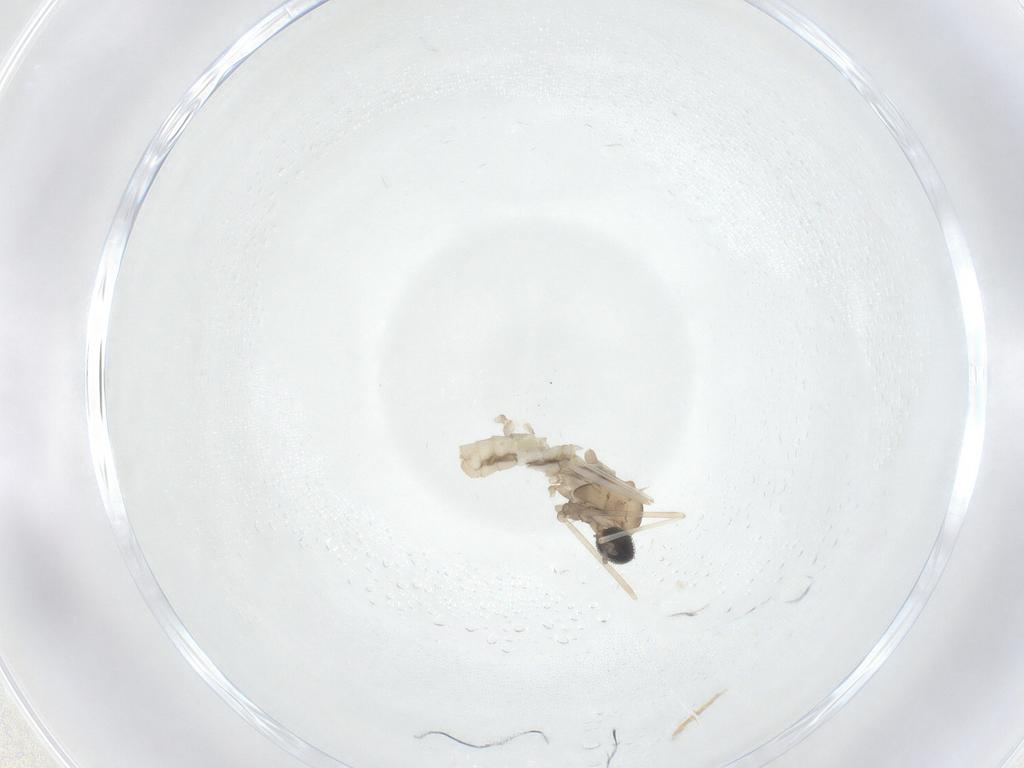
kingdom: Animalia
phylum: Arthropoda
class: Insecta
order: Diptera
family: Cecidomyiidae
